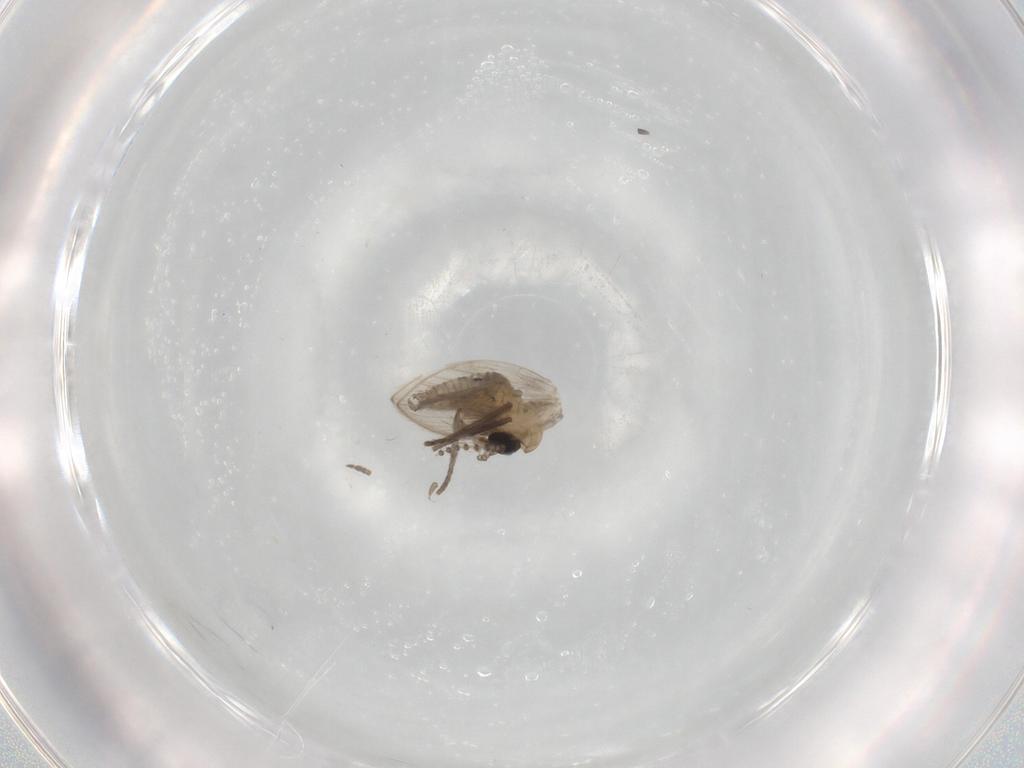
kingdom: Animalia
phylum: Arthropoda
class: Insecta
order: Diptera
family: Psychodidae
